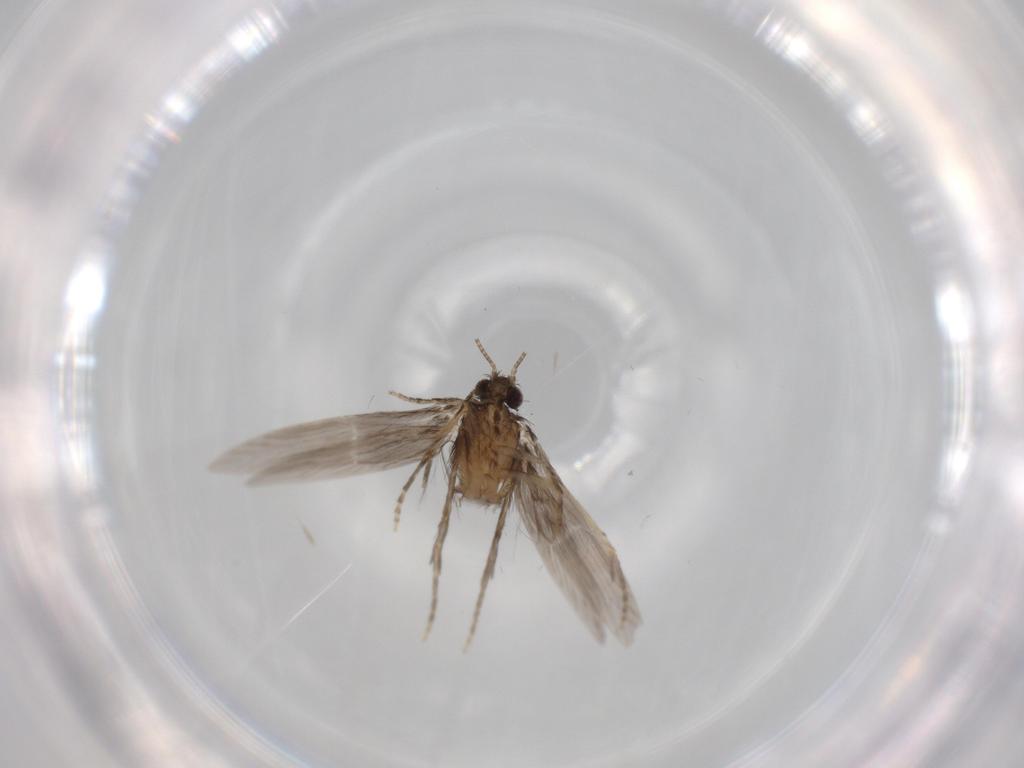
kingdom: Animalia
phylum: Arthropoda
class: Insecta
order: Trichoptera
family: Hydroptilidae
